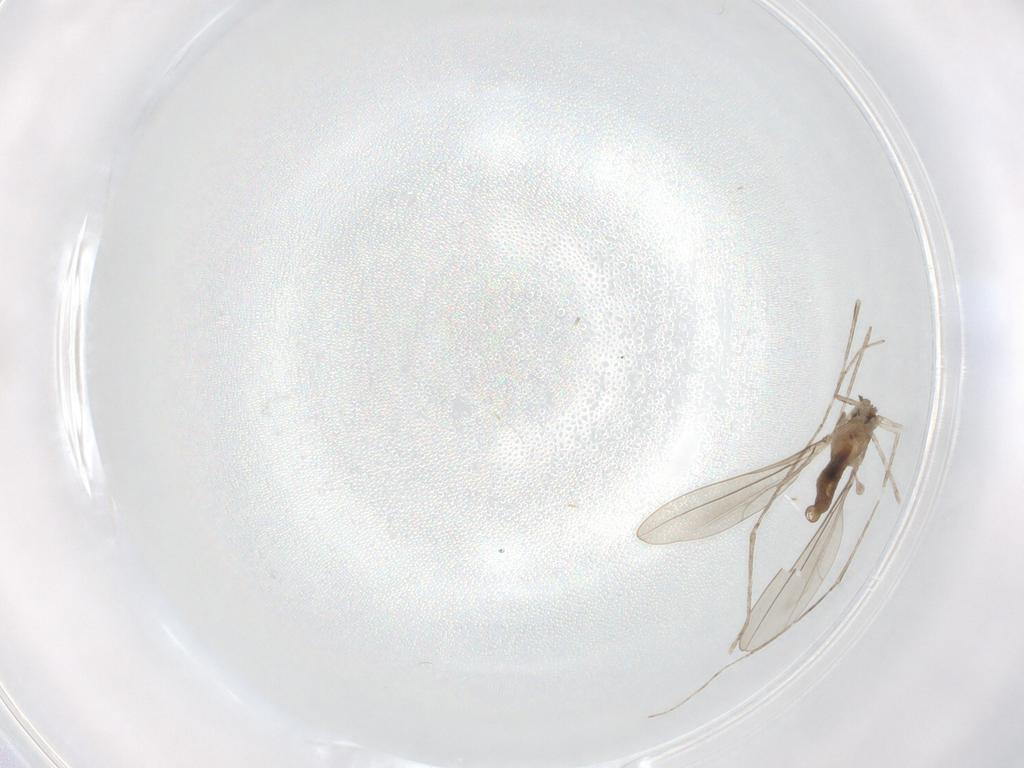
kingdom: Animalia
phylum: Arthropoda
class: Insecta
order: Diptera
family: Cecidomyiidae
